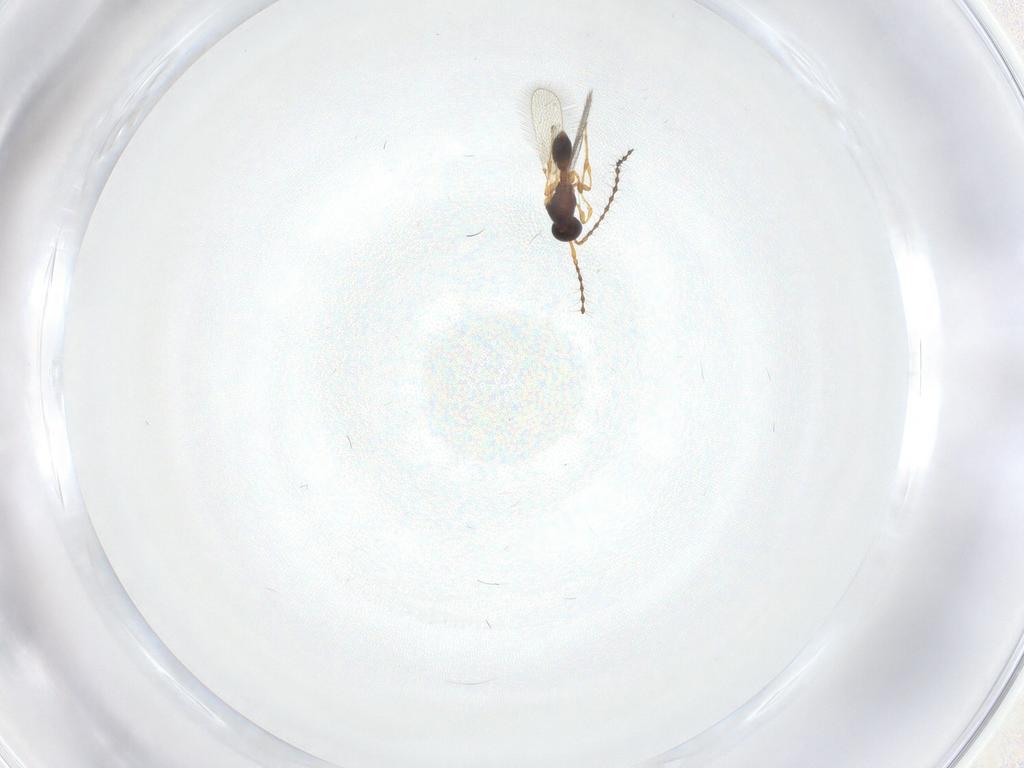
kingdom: Animalia
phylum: Arthropoda
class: Insecta
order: Hymenoptera
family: Diapriidae
